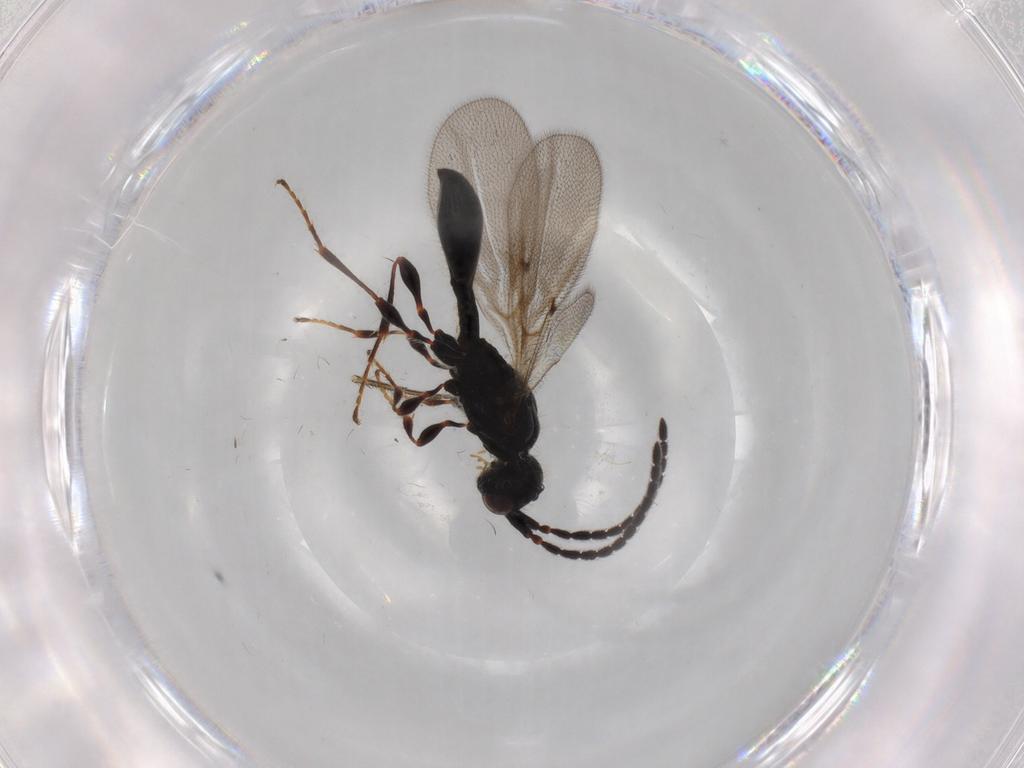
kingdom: Animalia
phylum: Arthropoda
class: Insecta
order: Hymenoptera
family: Diapriidae
